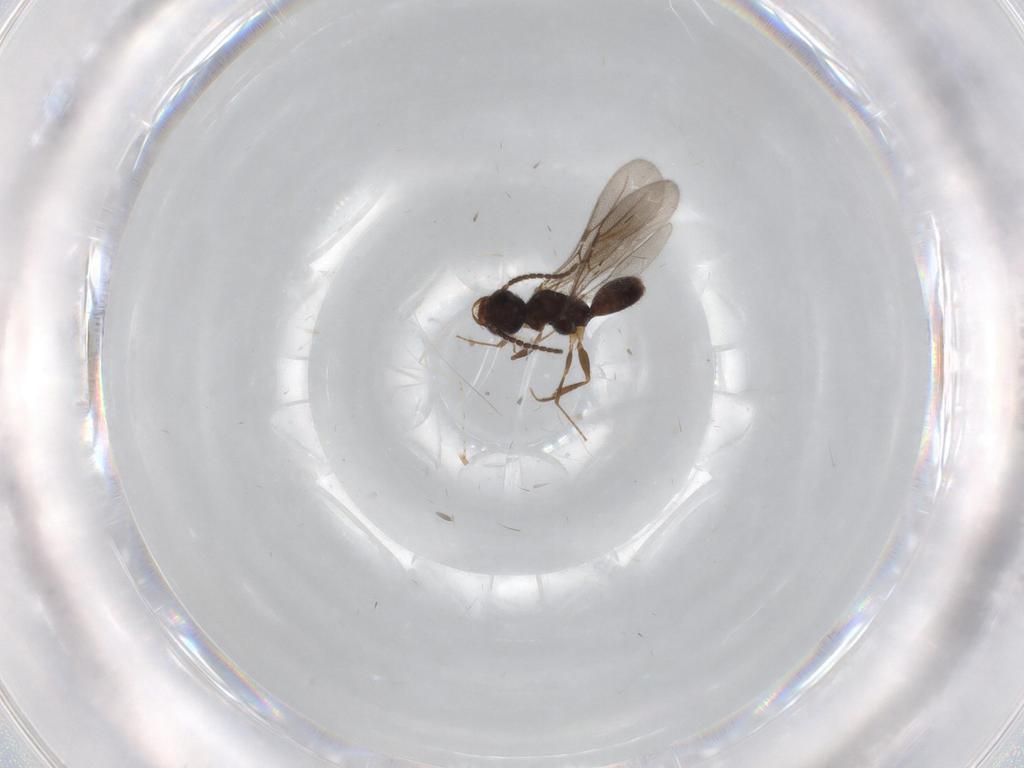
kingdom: Animalia
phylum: Arthropoda
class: Insecta
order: Hymenoptera
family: Bethylidae
